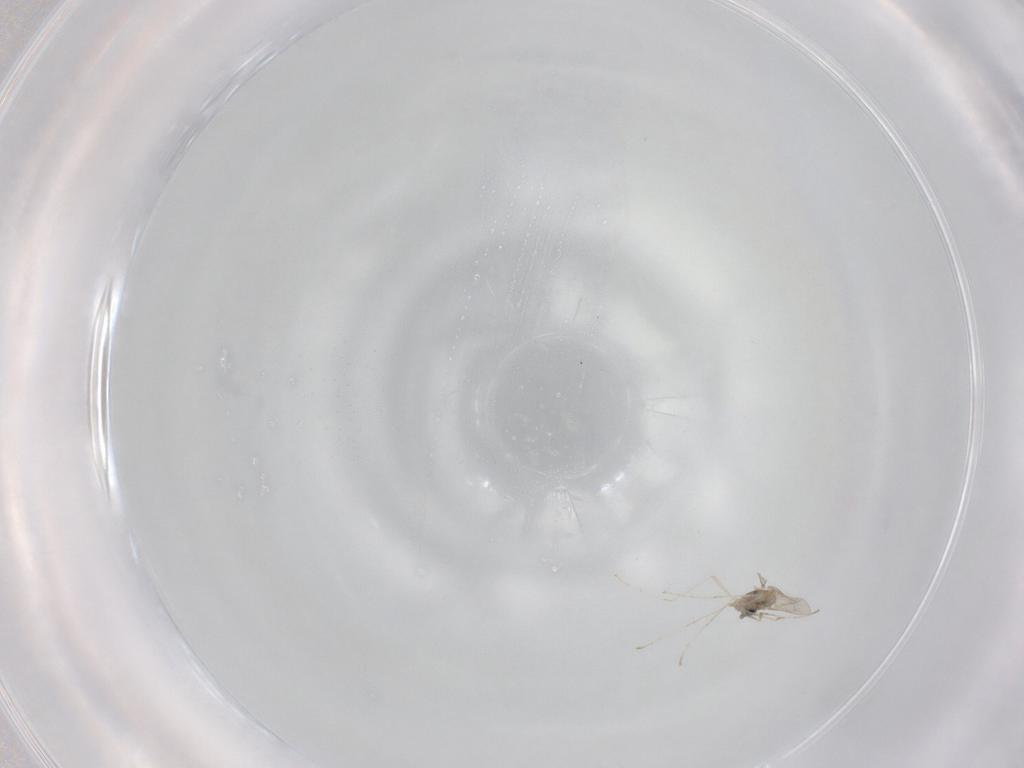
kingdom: Animalia
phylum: Arthropoda
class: Insecta
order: Diptera
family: Cecidomyiidae
